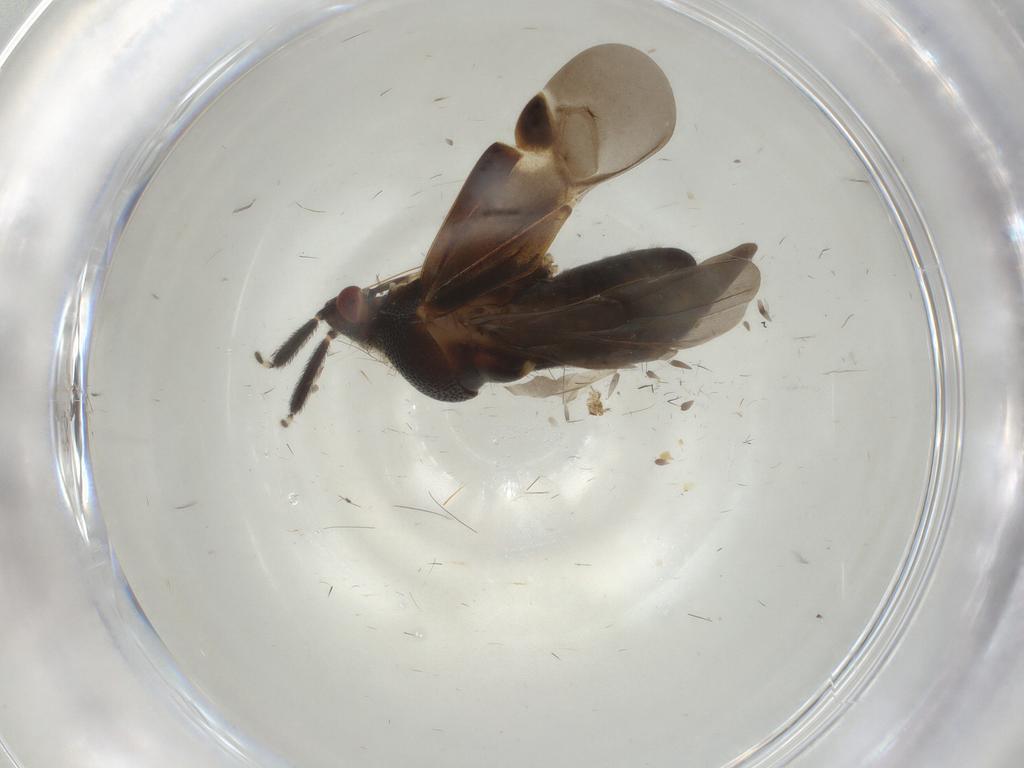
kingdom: Animalia
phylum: Arthropoda
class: Insecta
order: Hemiptera
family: Miridae
